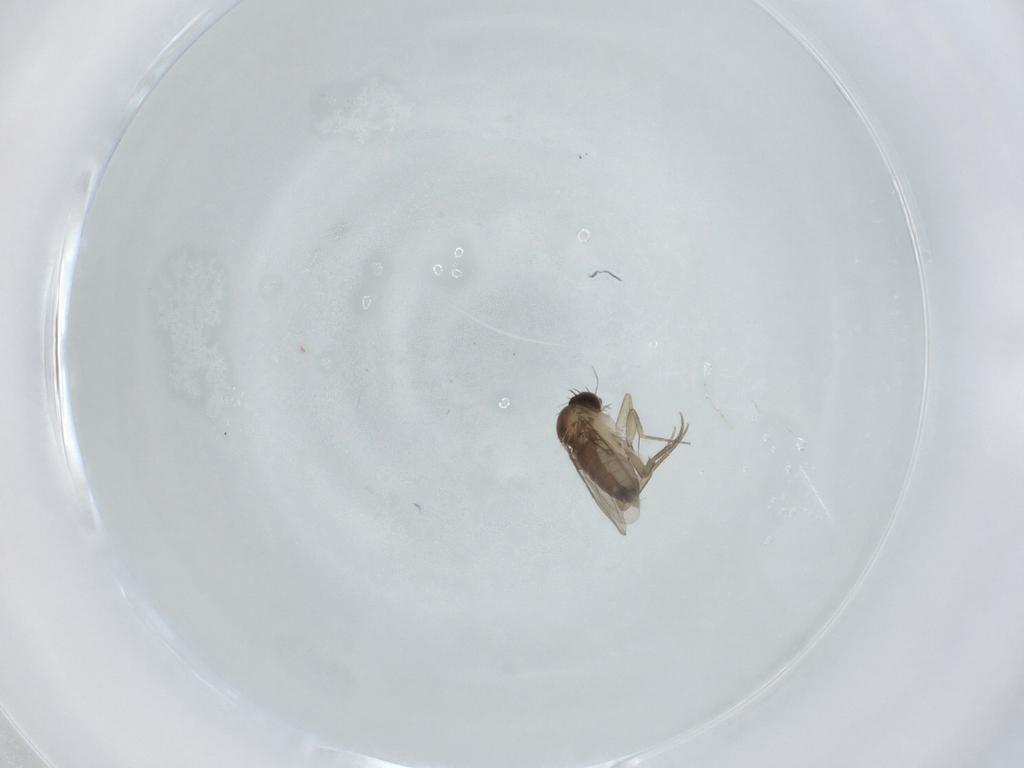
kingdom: Animalia
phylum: Arthropoda
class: Insecta
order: Diptera
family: Phoridae
